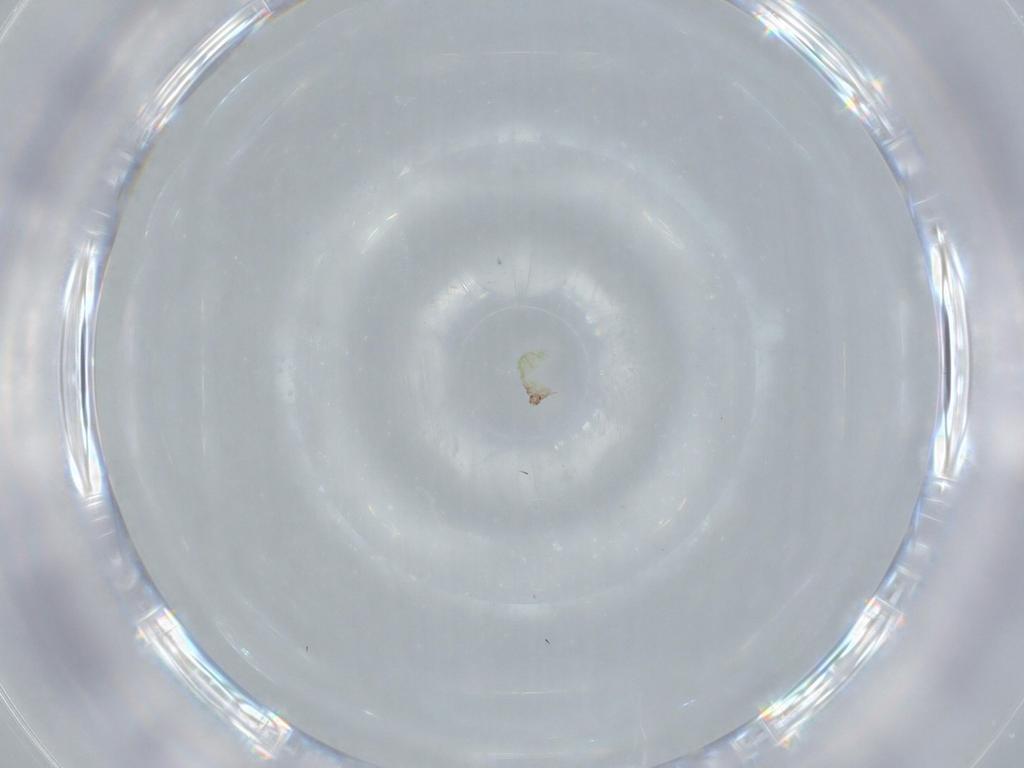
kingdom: Animalia
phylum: Arthropoda
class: Arachnida
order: Sarcoptiformes
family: Epidermoptidae
